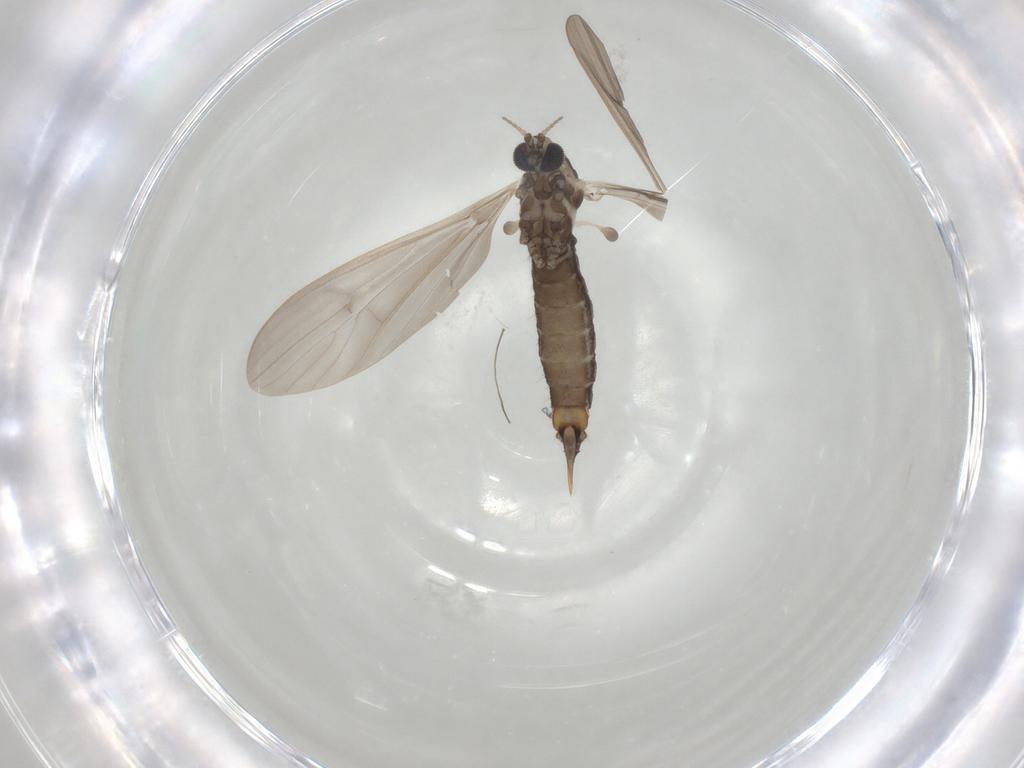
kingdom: Animalia
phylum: Arthropoda
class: Insecta
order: Diptera
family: Limoniidae
